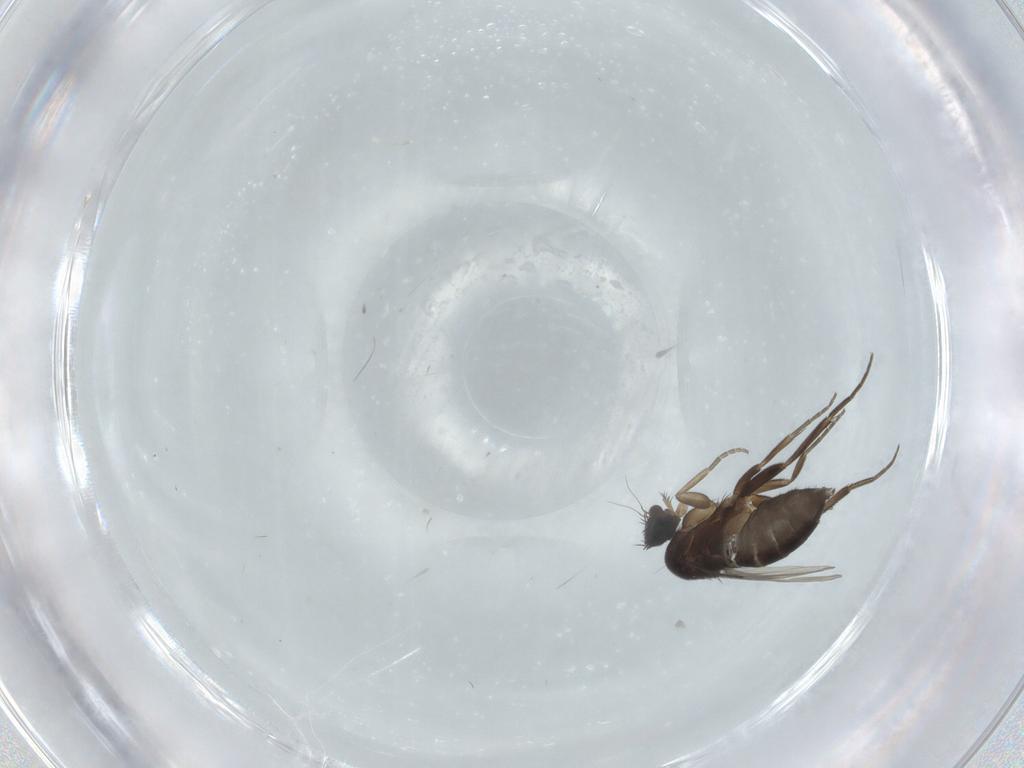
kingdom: Animalia
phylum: Arthropoda
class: Insecta
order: Diptera
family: Phoridae
